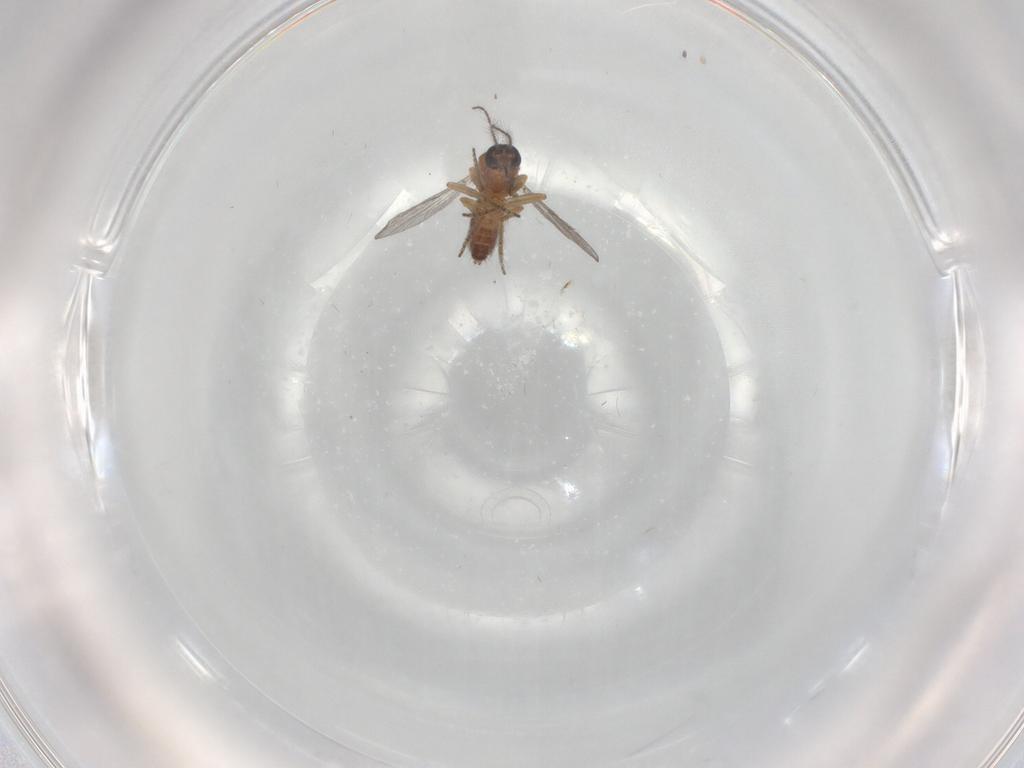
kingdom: Animalia
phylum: Arthropoda
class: Insecta
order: Diptera
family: Ceratopogonidae
